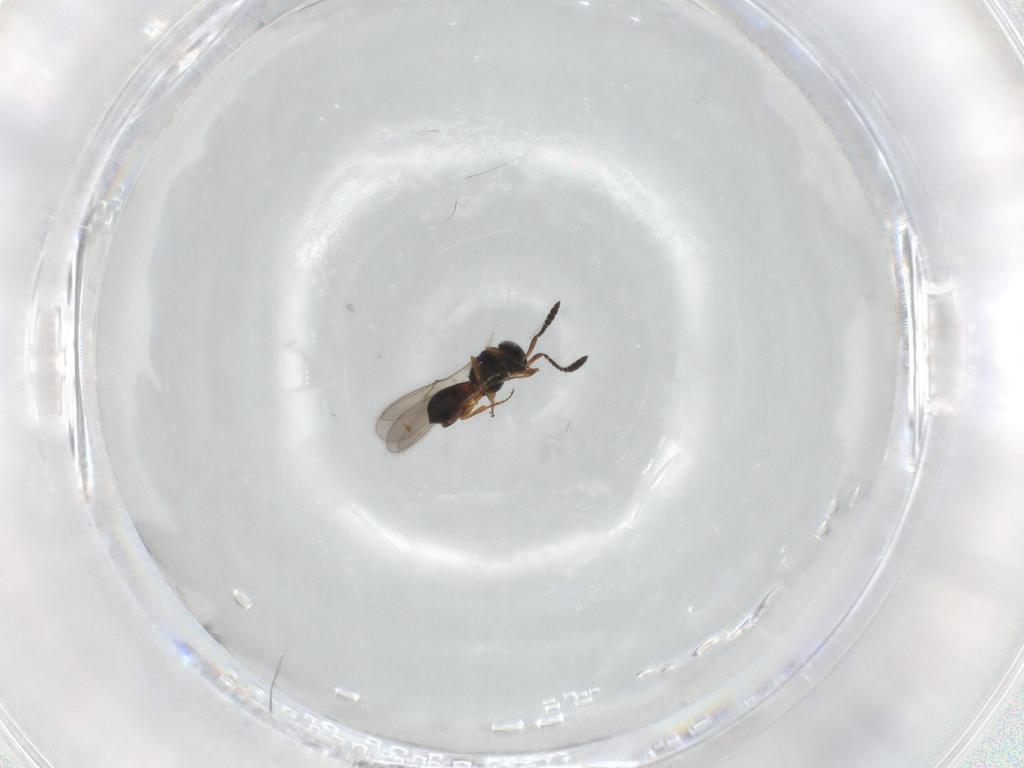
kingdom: Animalia
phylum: Arthropoda
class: Insecta
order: Hymenoptera
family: Scelionidae
